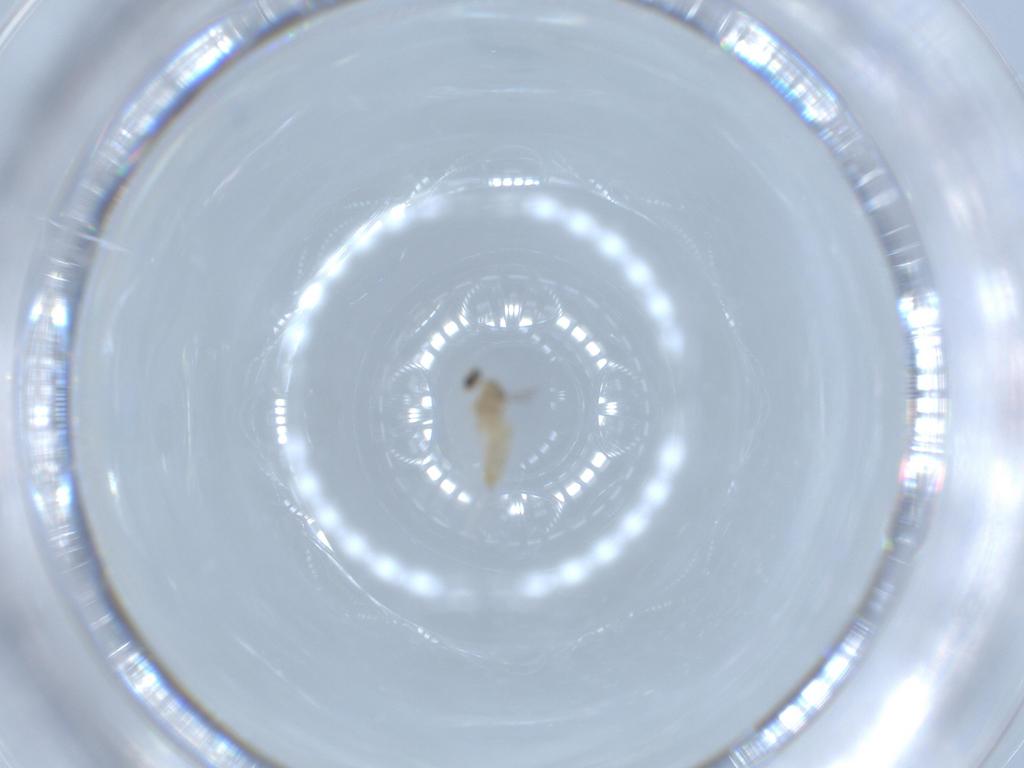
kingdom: Animalia
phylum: Arthropoda
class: Insecta
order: Diptera
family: Cecidomyiidae
